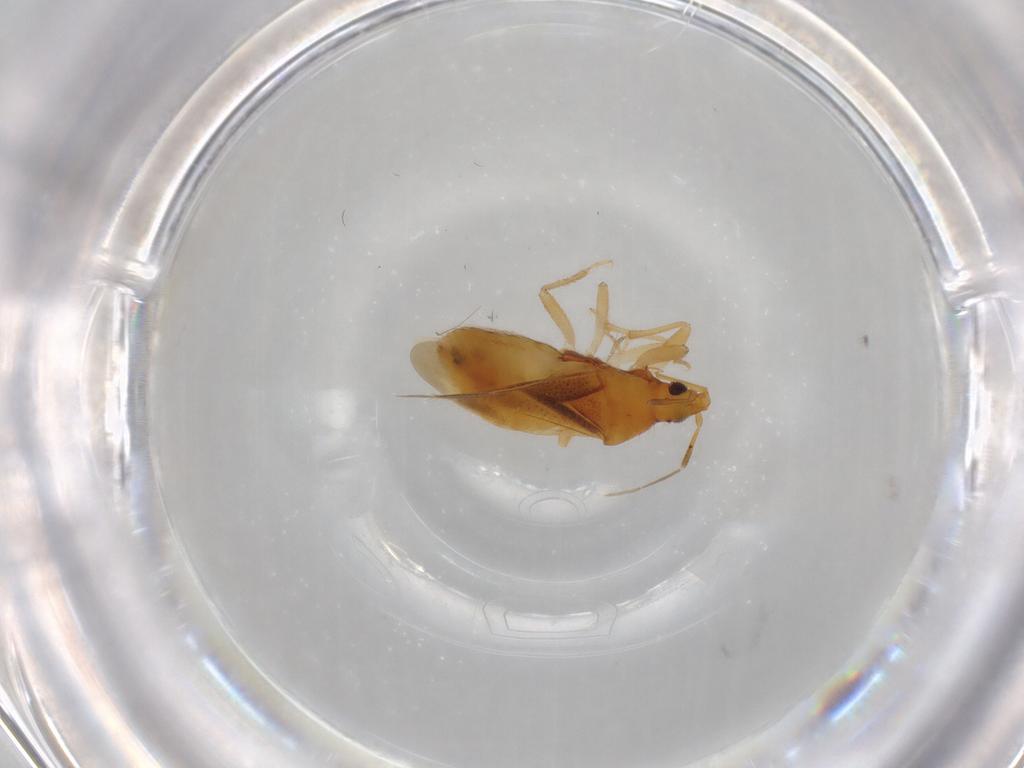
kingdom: Animalia
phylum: Arthropoda
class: Insecta
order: Hemiptera
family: Lasiochilidae
